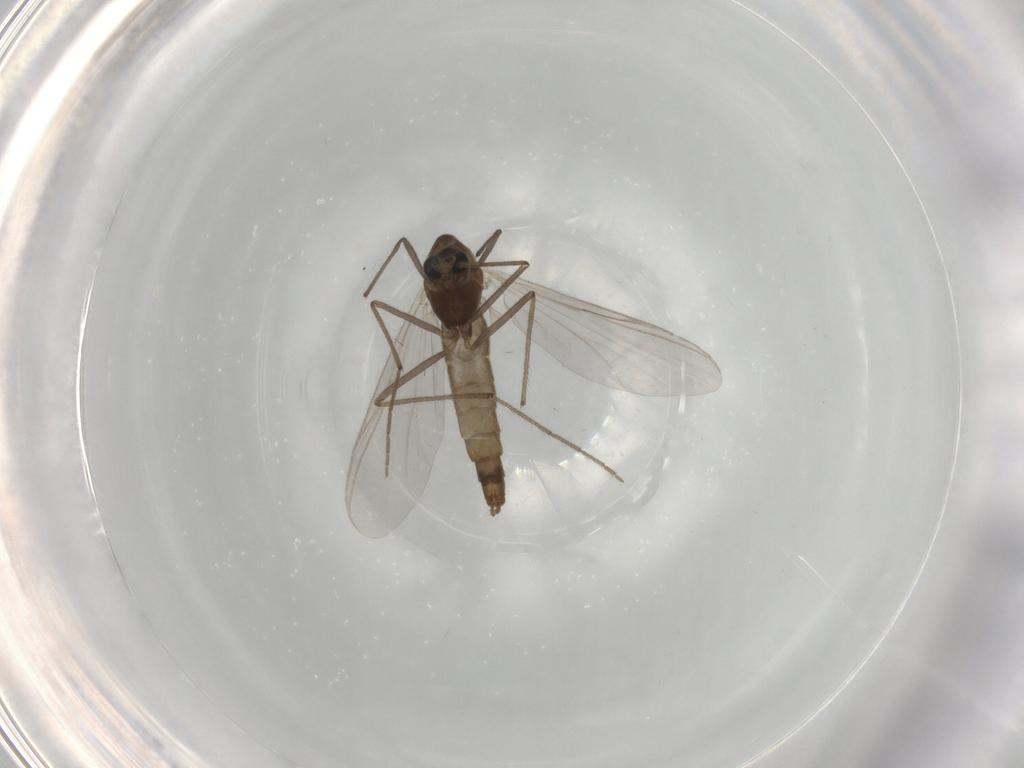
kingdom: Animalia
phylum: Arthropoda
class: Insecta
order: Diptera
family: Chironomidae
